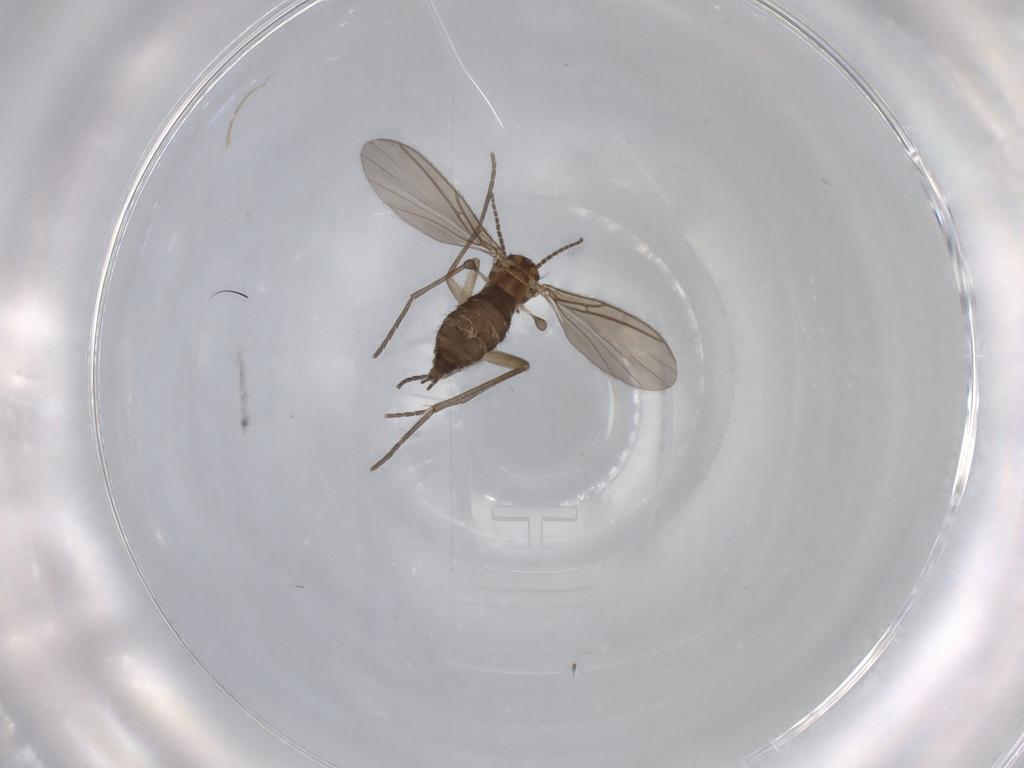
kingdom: Animalia
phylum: Arthropoda
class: Insecta
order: Diptera
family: Dolichopodidae
